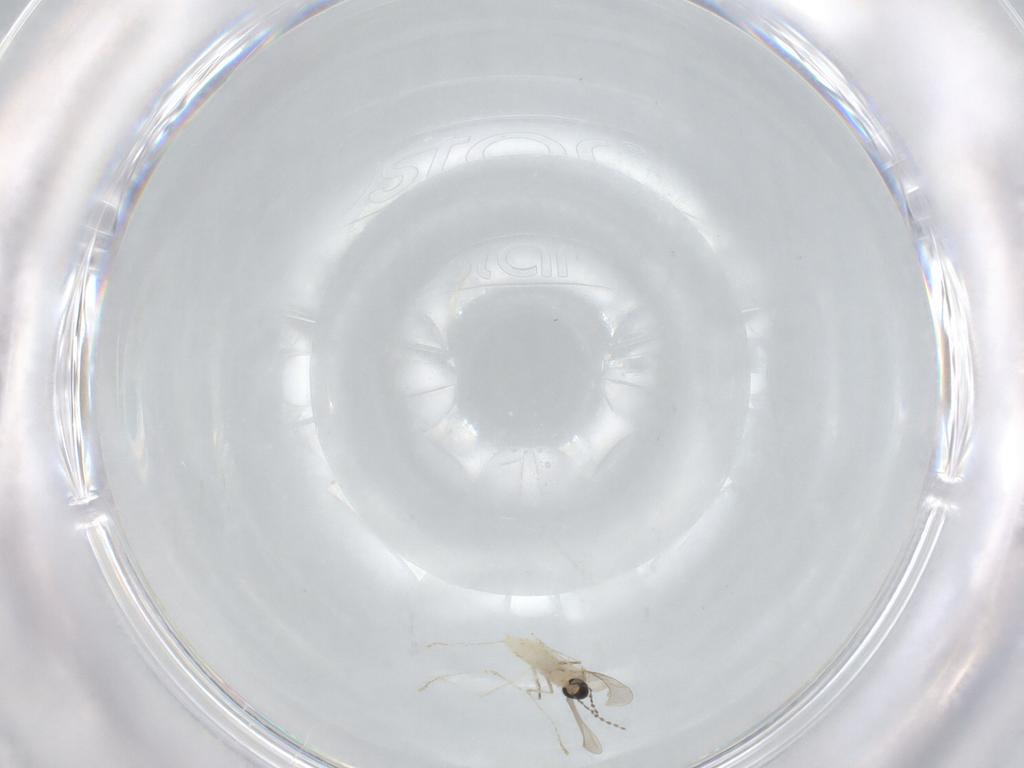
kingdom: Animalia
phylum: Arthropoda
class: Insecta
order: Diptera
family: Cecidomyiidae
